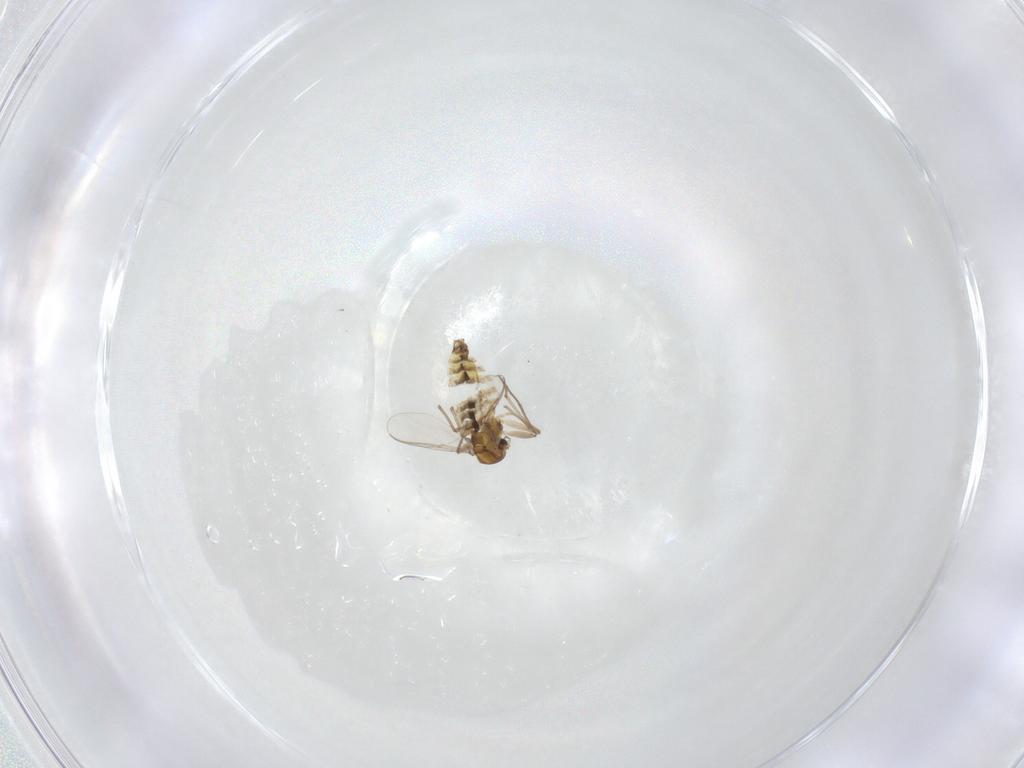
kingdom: Animalia
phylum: Arthropoda
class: Insecta
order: Diptera
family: Chironomidae
